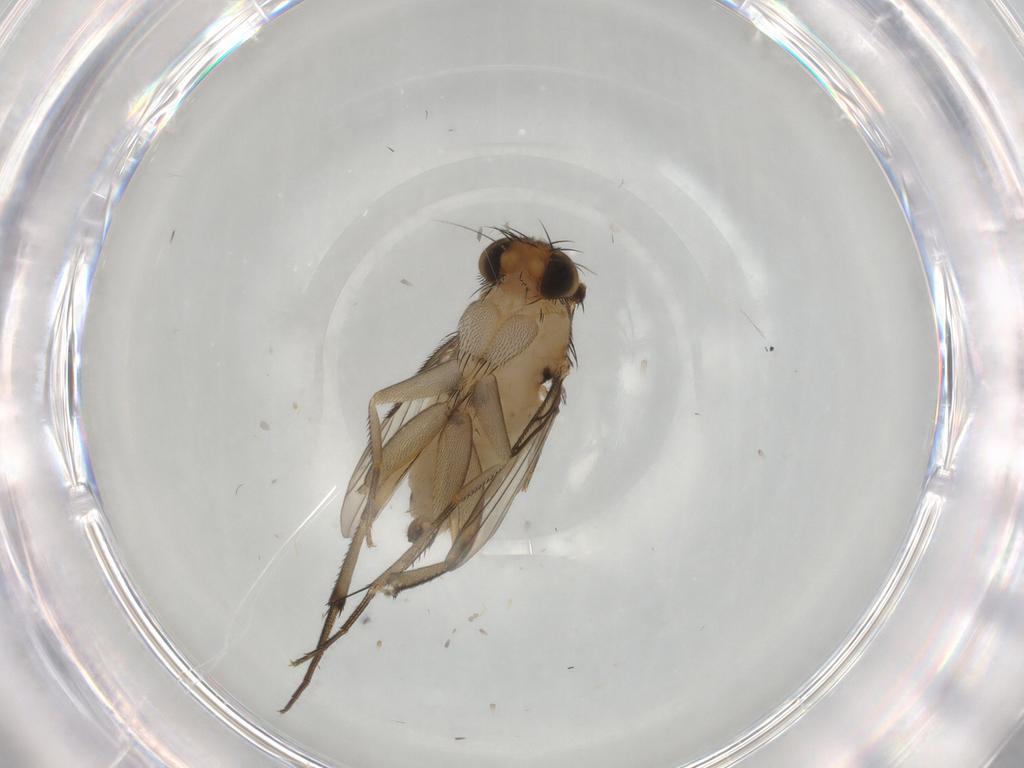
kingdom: Animalia
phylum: Arthropoda
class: Insecta
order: Diptera
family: Phoridae
